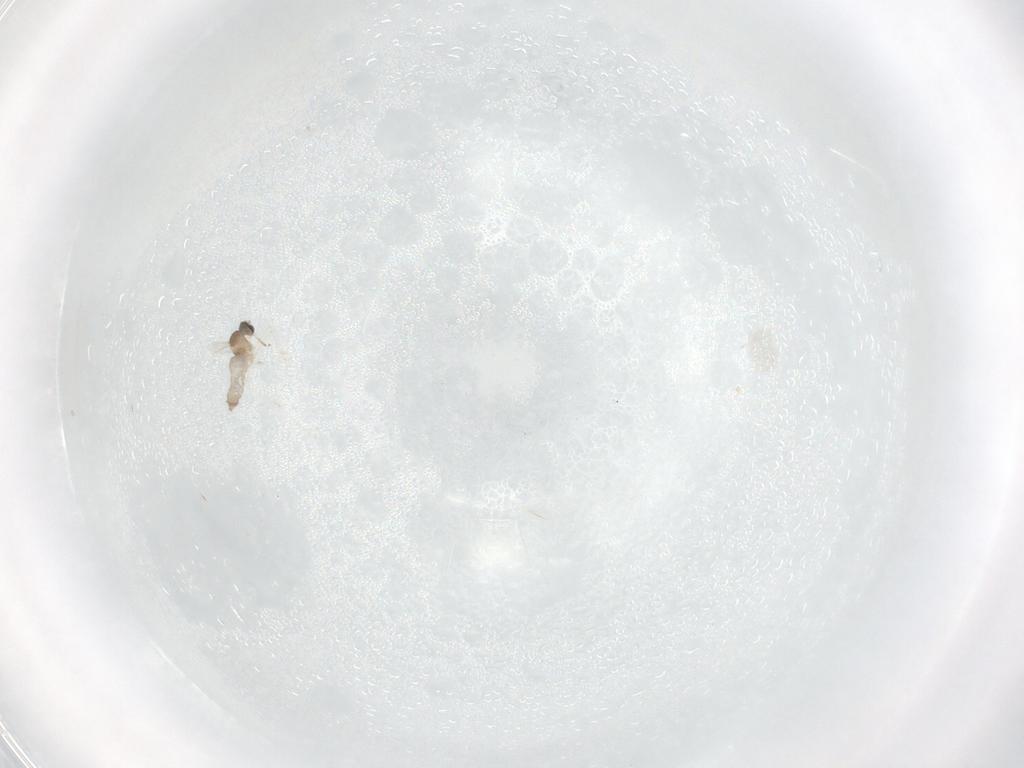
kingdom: Animalia
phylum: Arthropoda
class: Insecta
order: Diptera
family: Cecidomyiidae
